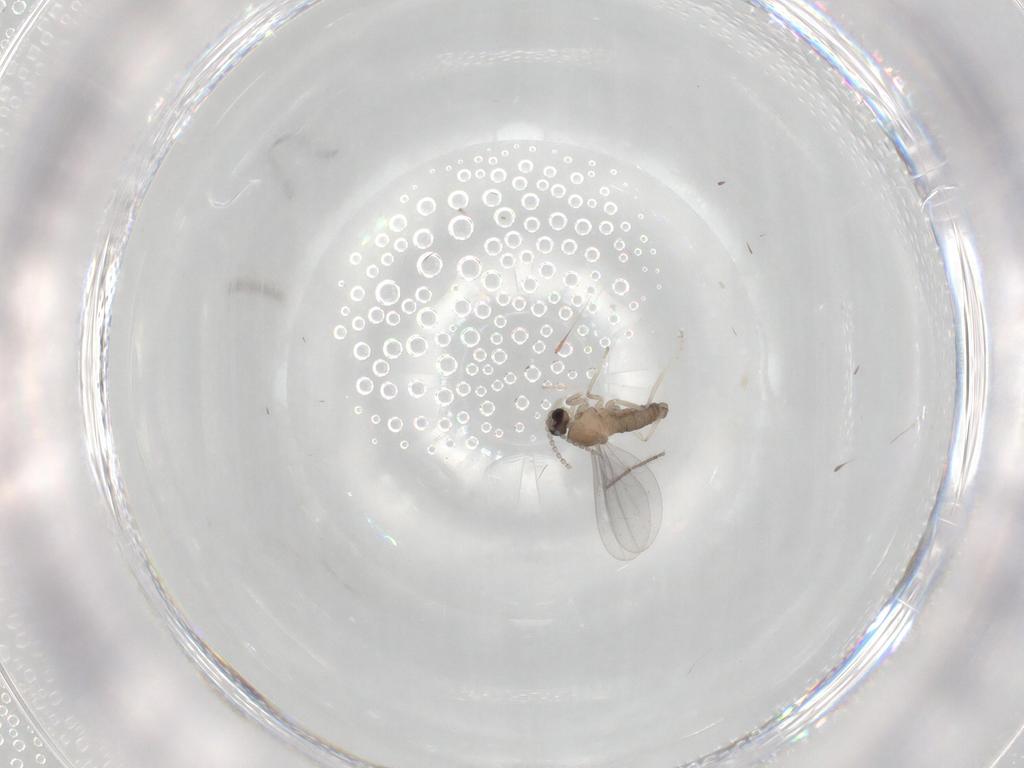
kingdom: Animalia
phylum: Arthropoda
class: Insecta
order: Diptera
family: Cecidomyiidae
